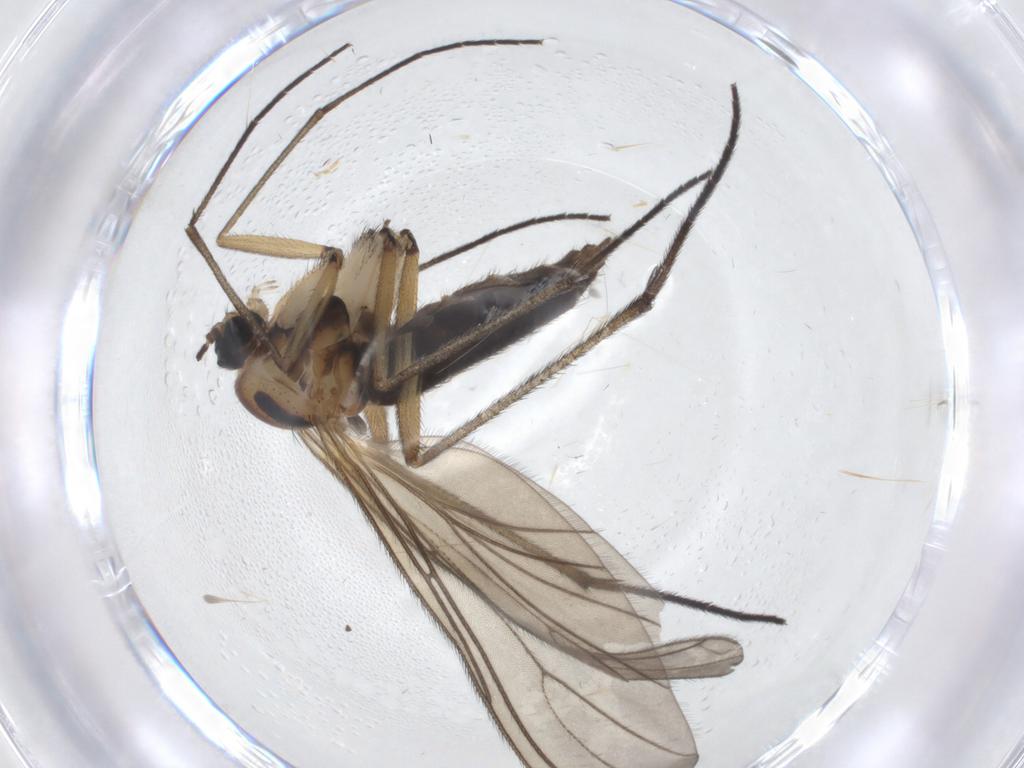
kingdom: Animalia
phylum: Arthropoda
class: Insecta
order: Diptera
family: Sciaridae
